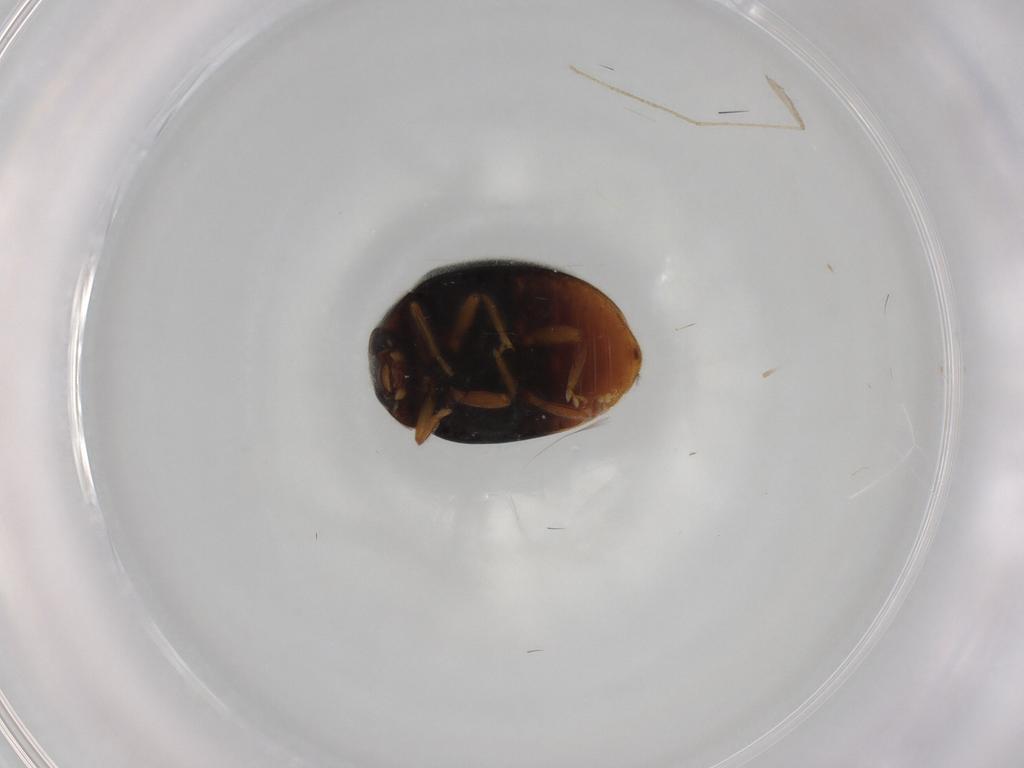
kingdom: Animalia
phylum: Arthropoda
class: Insecta
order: Coleoptera
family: Coccinellidae
